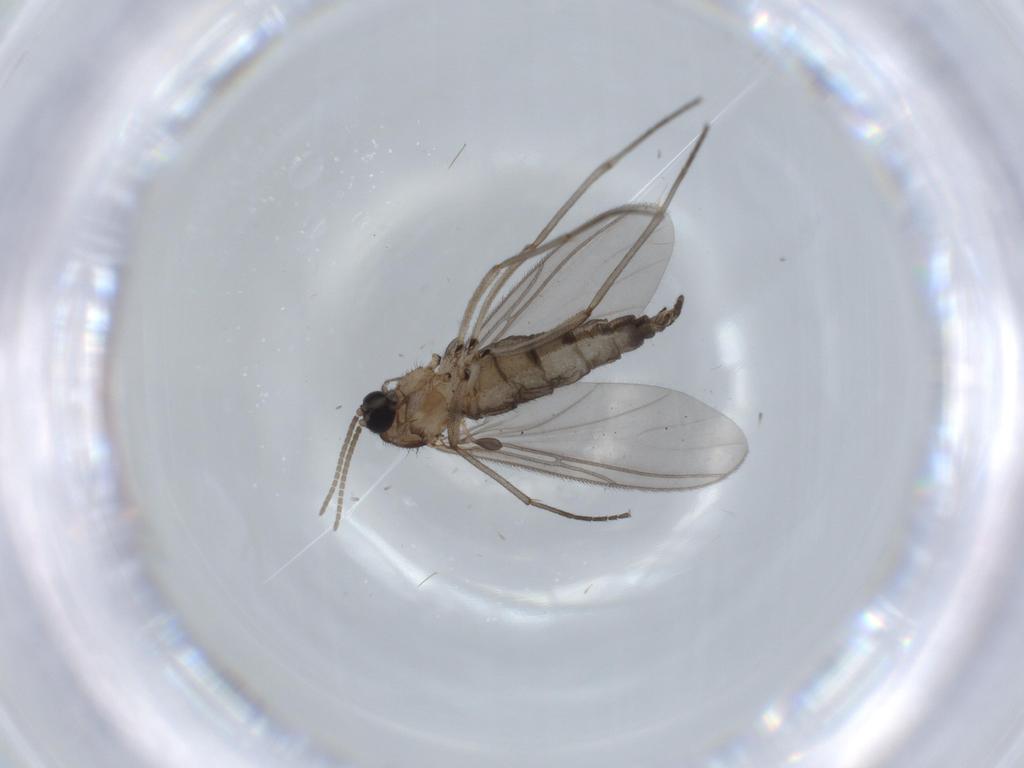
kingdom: Animalia
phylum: Arthropoda
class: Insecta
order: Diptera
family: Sciaridae
